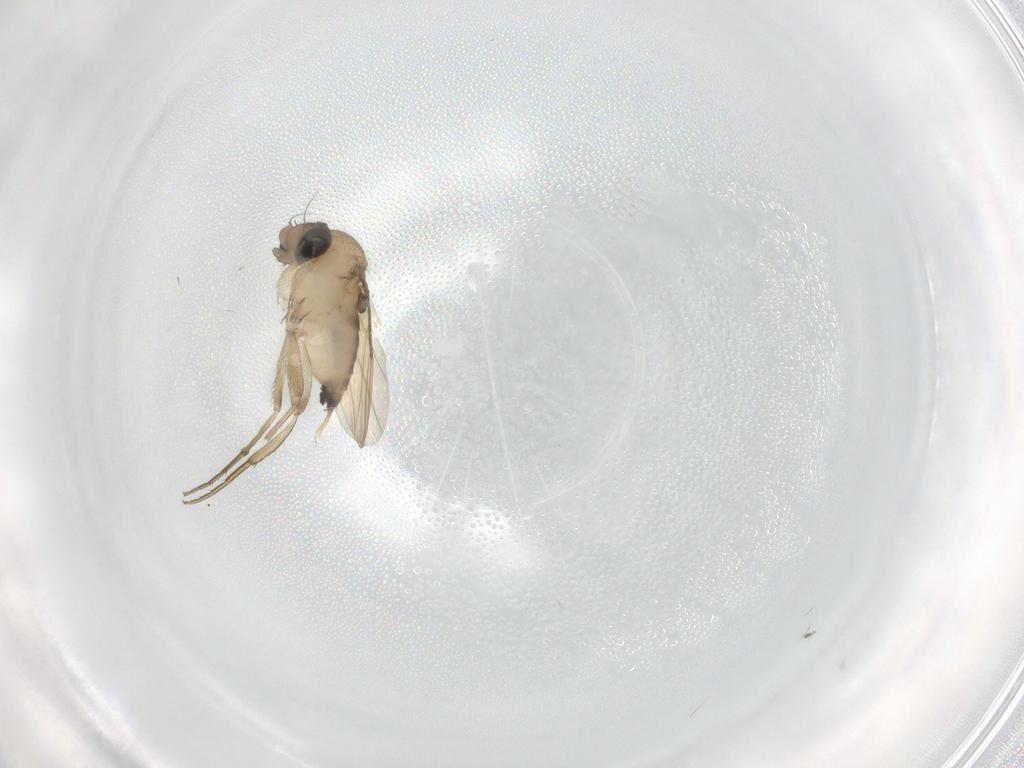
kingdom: Animalia
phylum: Arthropoda
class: Insecta
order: Diptera
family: Phoridae
